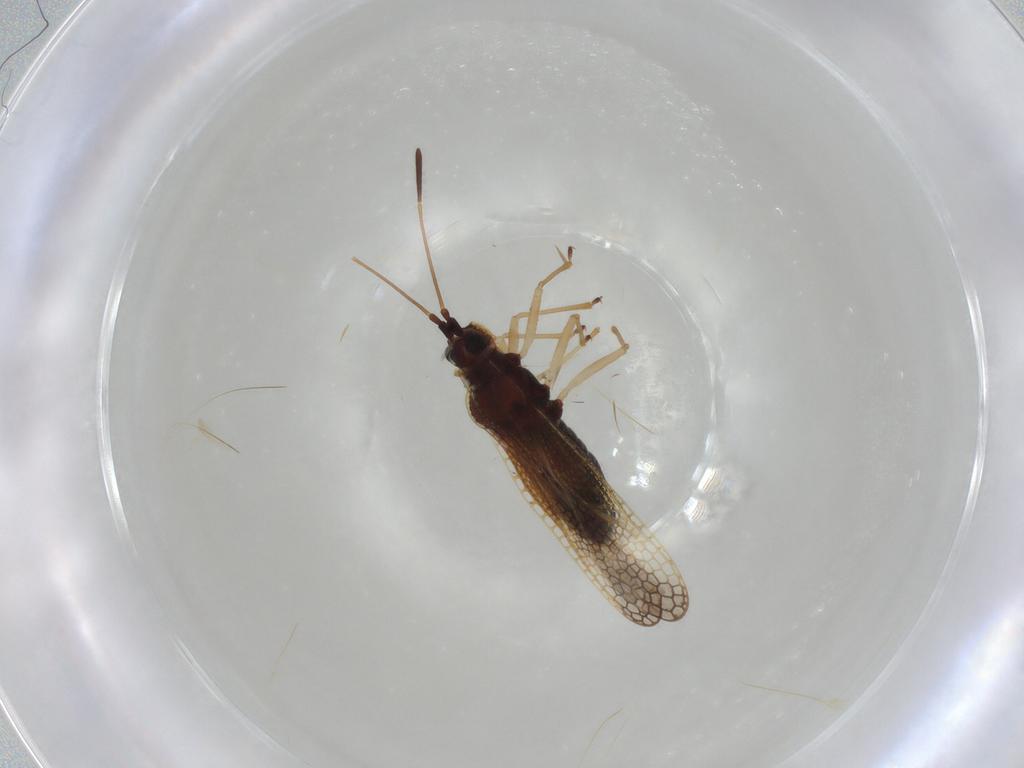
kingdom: Animalia
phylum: Arthropoda
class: Insecta
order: Hemiptera
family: Tingidae
